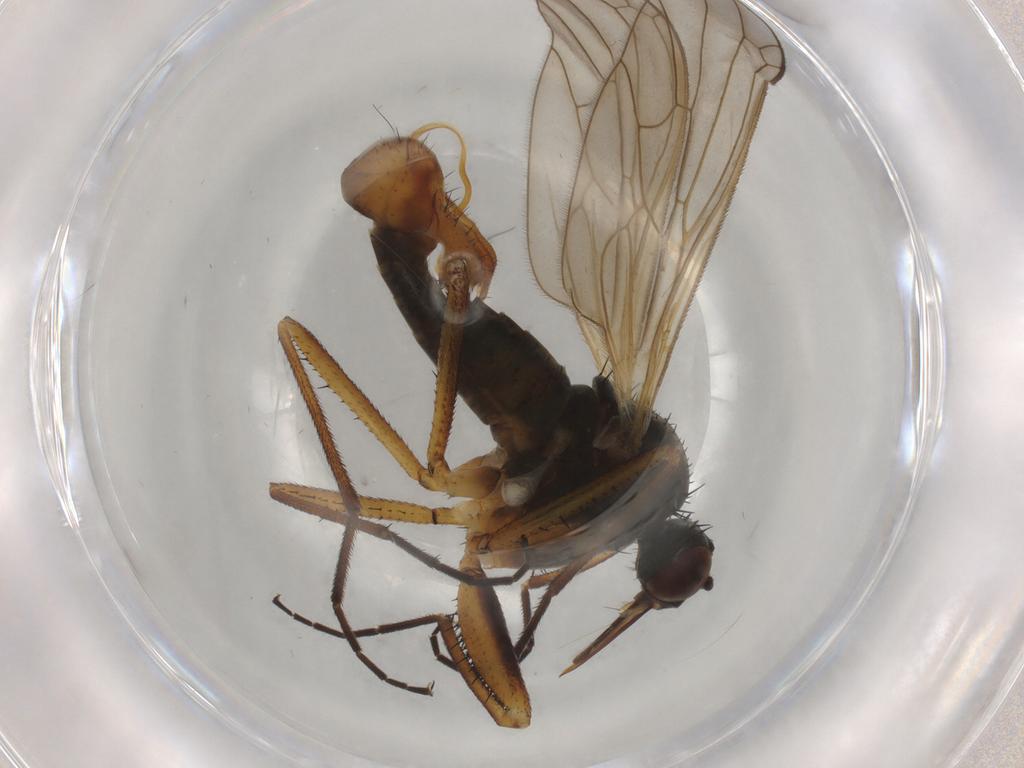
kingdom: Animalia
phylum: Arthropoda
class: Insecta
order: Diptera
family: Empididae
